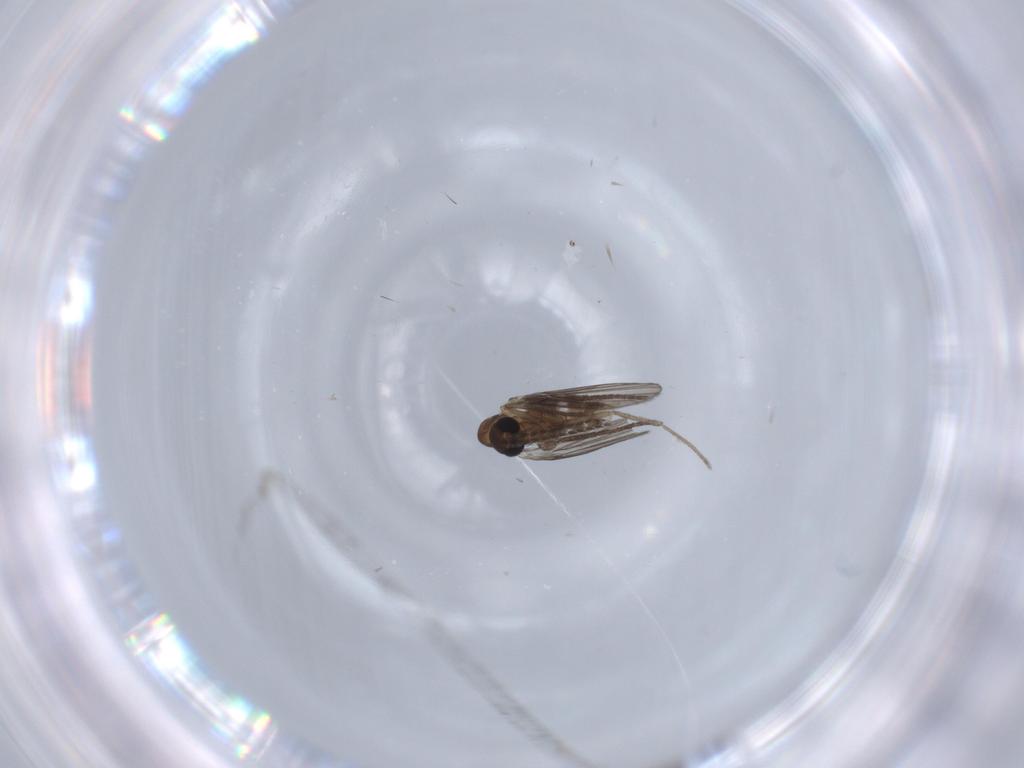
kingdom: Animalia
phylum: Arthropoda
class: Insecta
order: Diptera
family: Psychodidae
